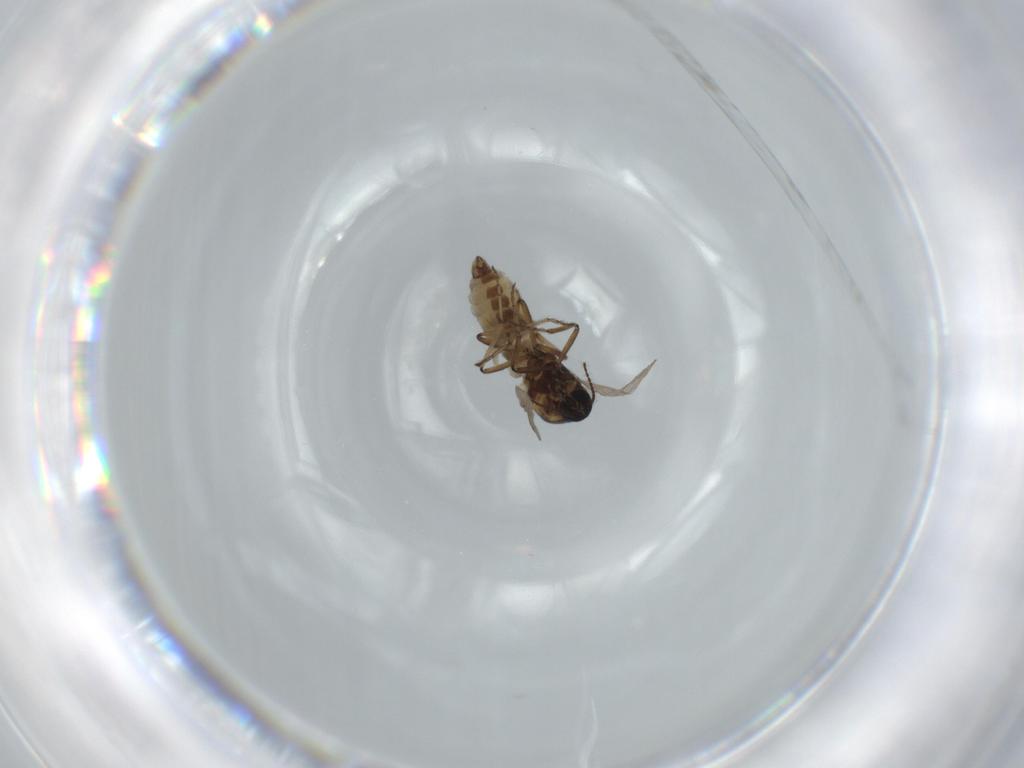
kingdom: Animalia
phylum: Arthropoda
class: Insecta
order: Diptera
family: Ceratopogonidae
